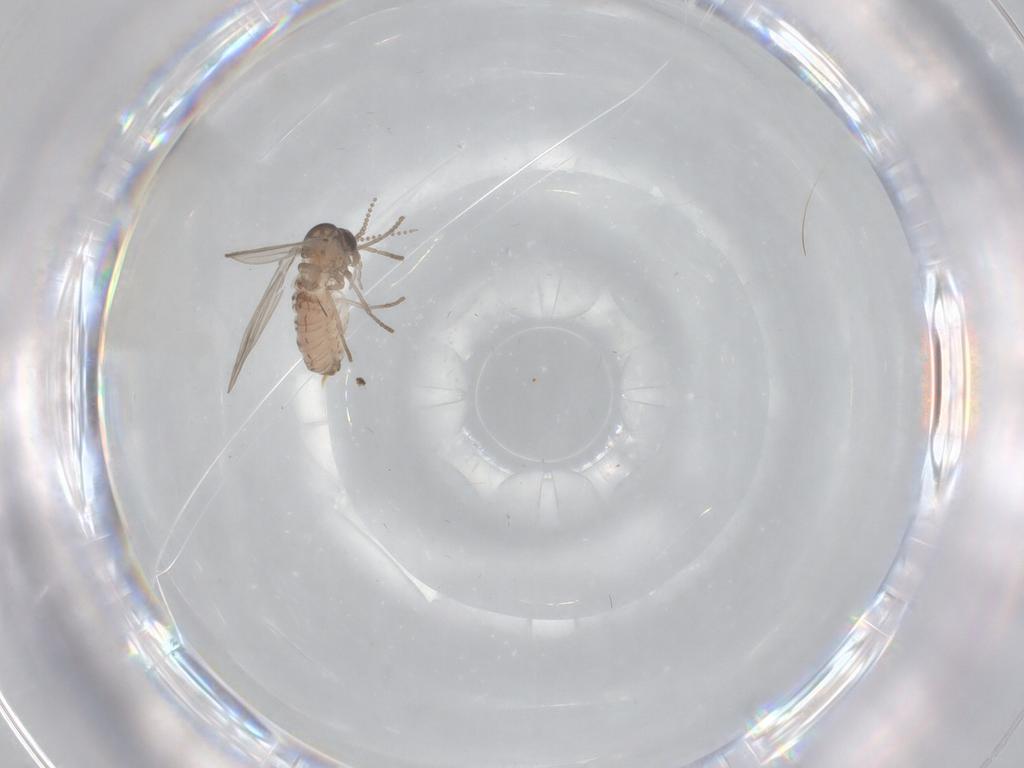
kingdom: Animalia
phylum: Arthropoda
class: Insecta
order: Diptera
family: Psychodidae
